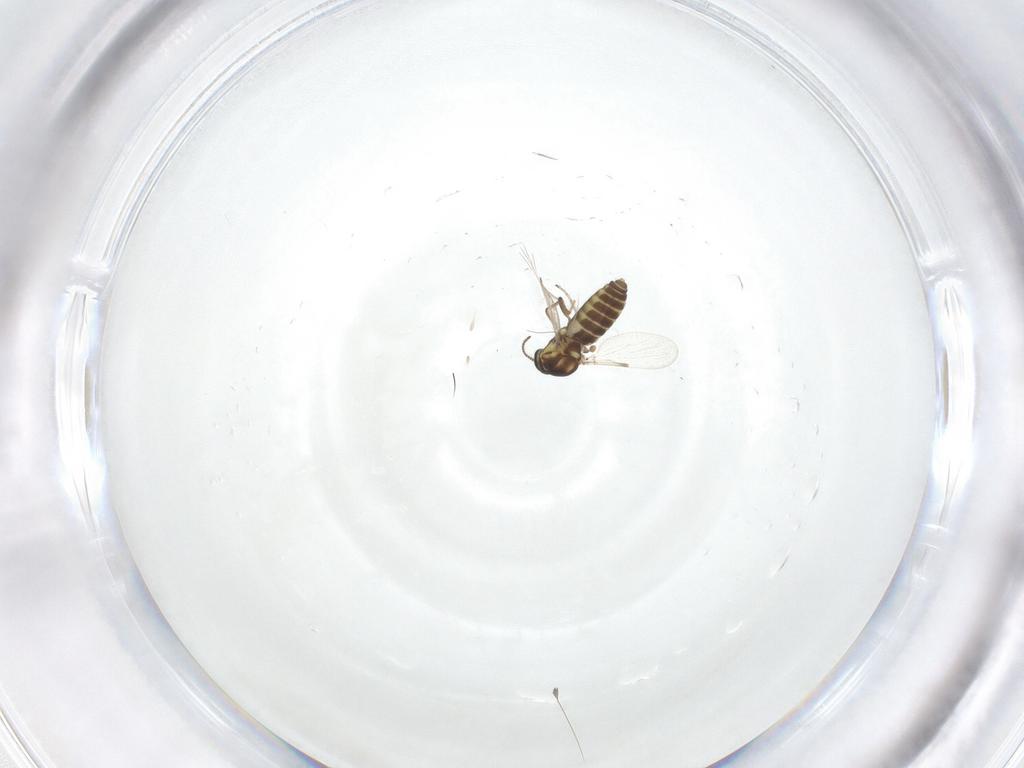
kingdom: Animalia
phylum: Arthropoda
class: Insecta
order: Diptera
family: Ceratopogonidae
